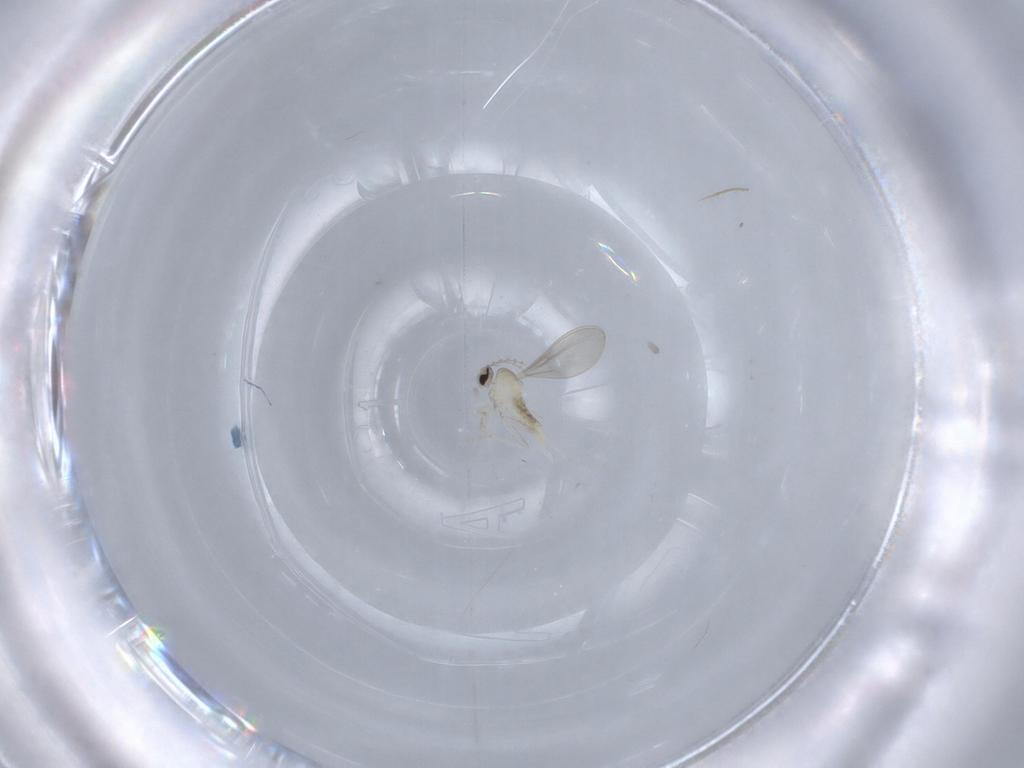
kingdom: Animalia
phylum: Arthropoda
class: Insecta
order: Diptera
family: Cecidomyiidae
